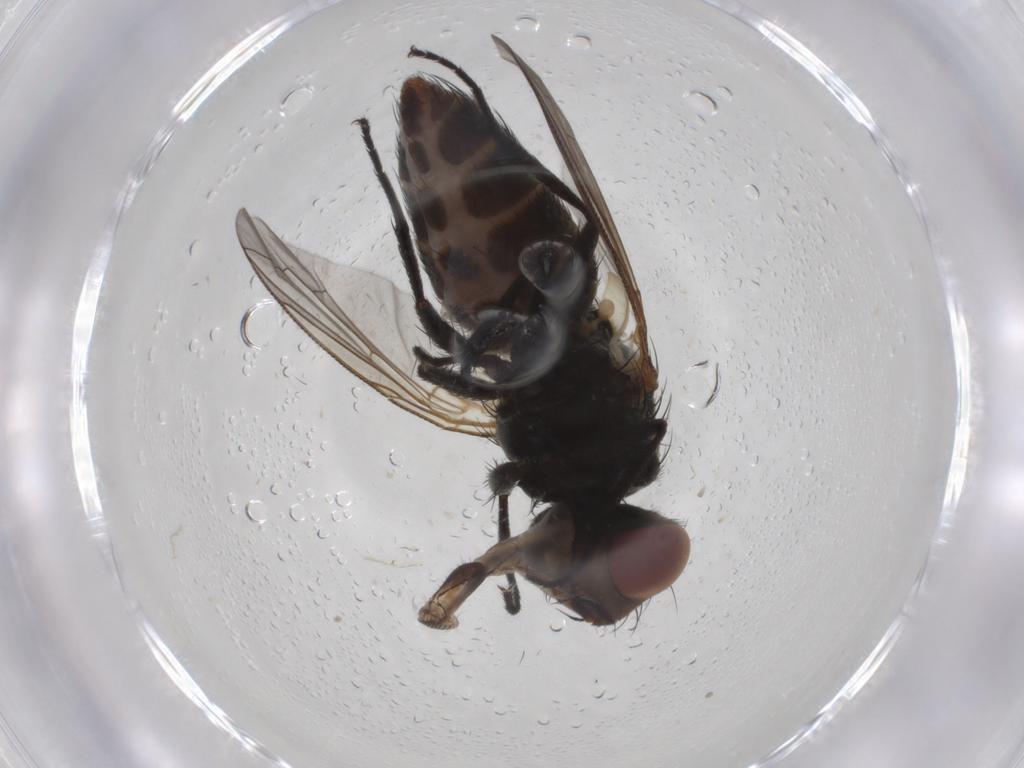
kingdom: Animalia
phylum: Arthropoda
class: Insecta
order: Diptera
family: Sarcophagidae
